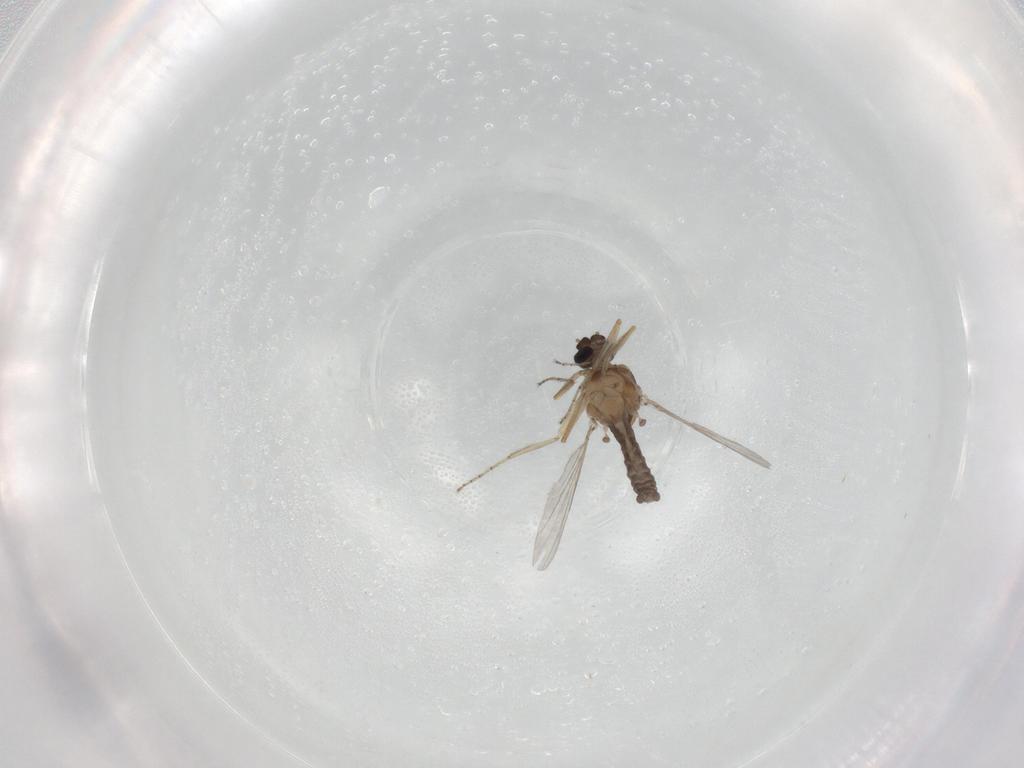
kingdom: Animalia
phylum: Arthropoda
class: Insecta
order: Diptera
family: Ceratopogonidae
